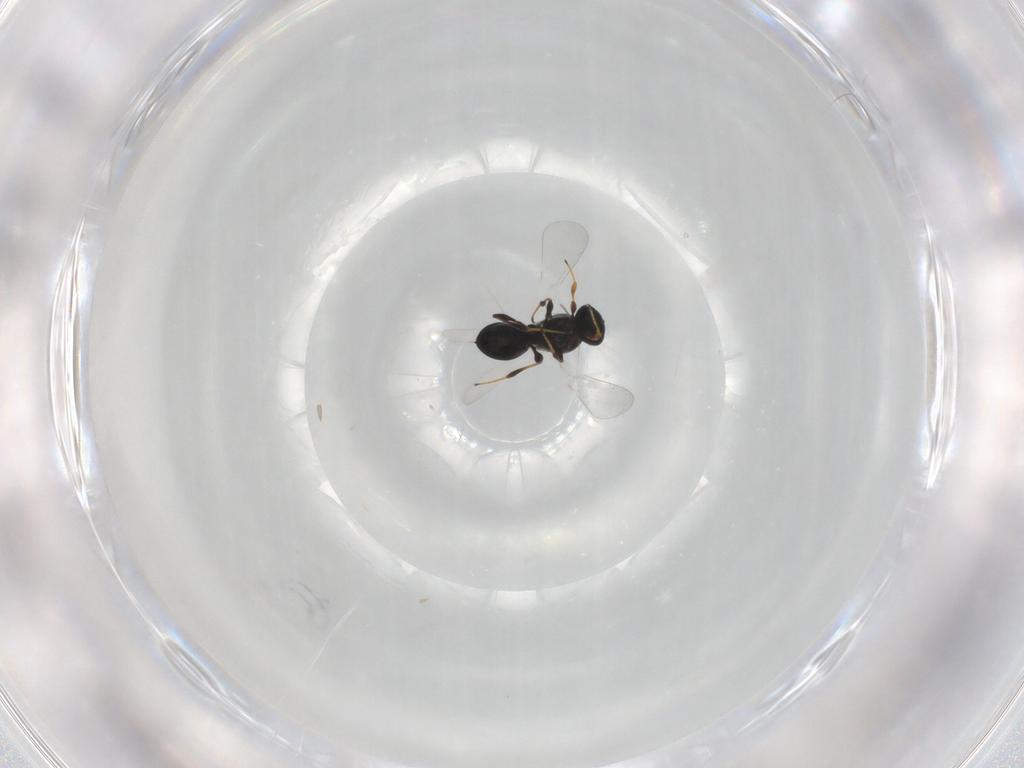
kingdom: Animalia
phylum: Arthropoda
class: Insecta
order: Hymenoptera
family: Platygastridae
